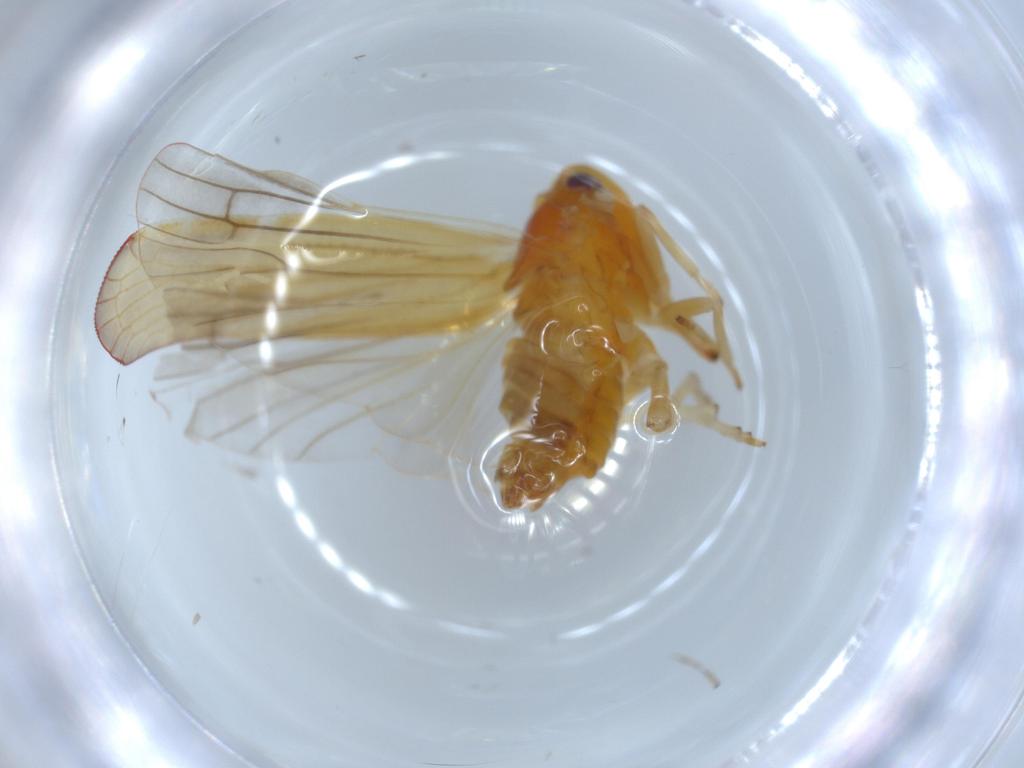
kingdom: Animalia
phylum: Arthropoda
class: Insecta
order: Hemiptera
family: Derbidae
